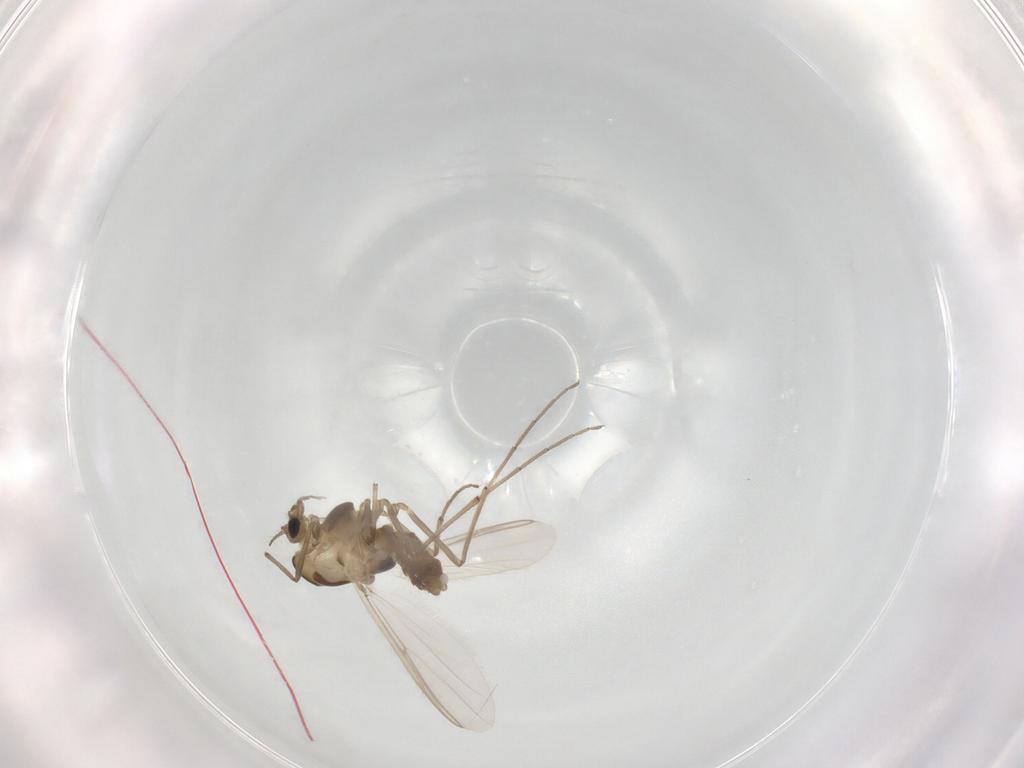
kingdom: Animalia
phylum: Arthropoda
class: Insecta
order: Diptera
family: Chironomidae
